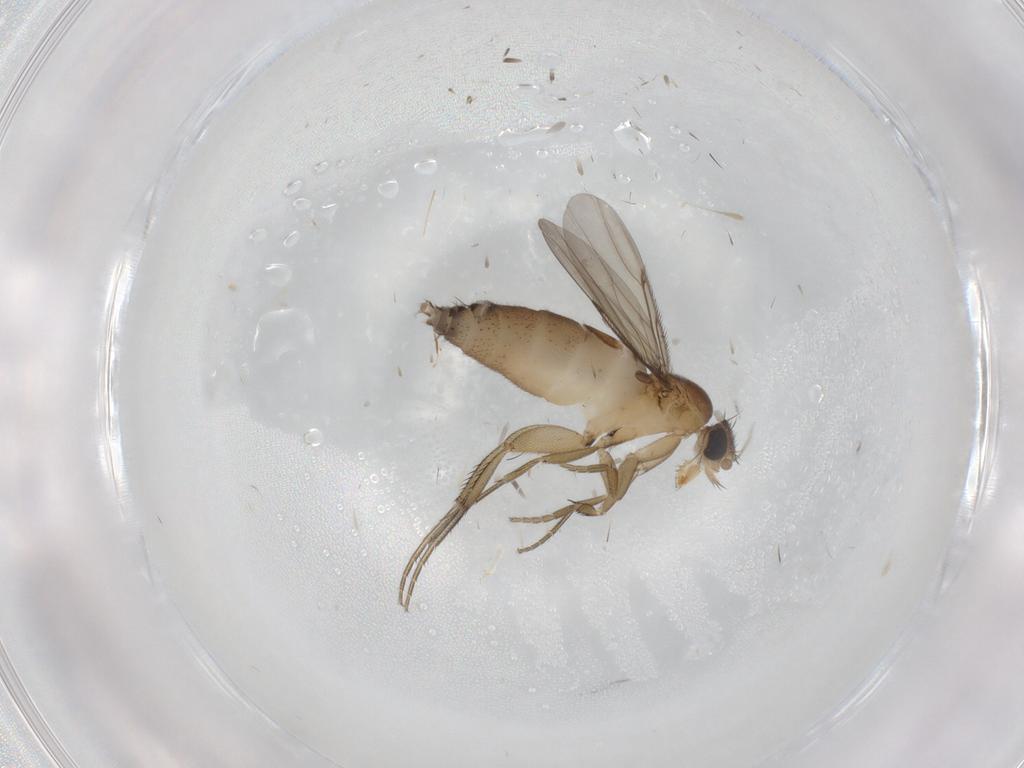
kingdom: Animalia
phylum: Arthropoda
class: Insecta
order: Diptera
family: Phoridae
